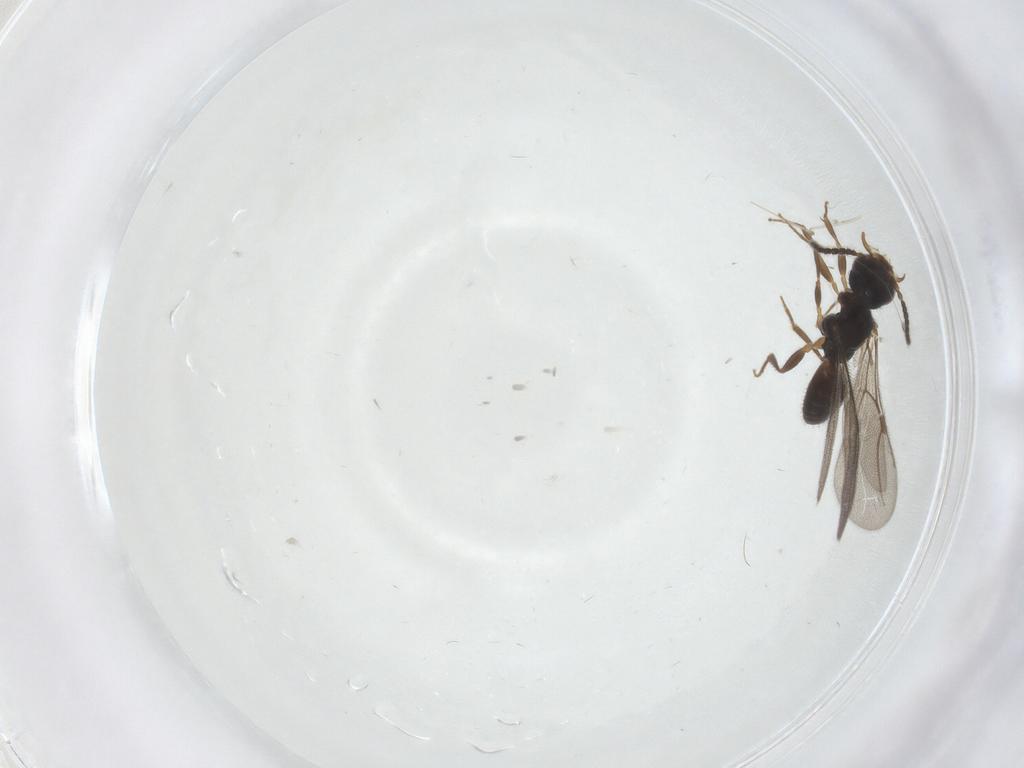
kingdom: Animalia
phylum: Arthropoda
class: Insecta
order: Hymenoptera
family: Bethylidae
